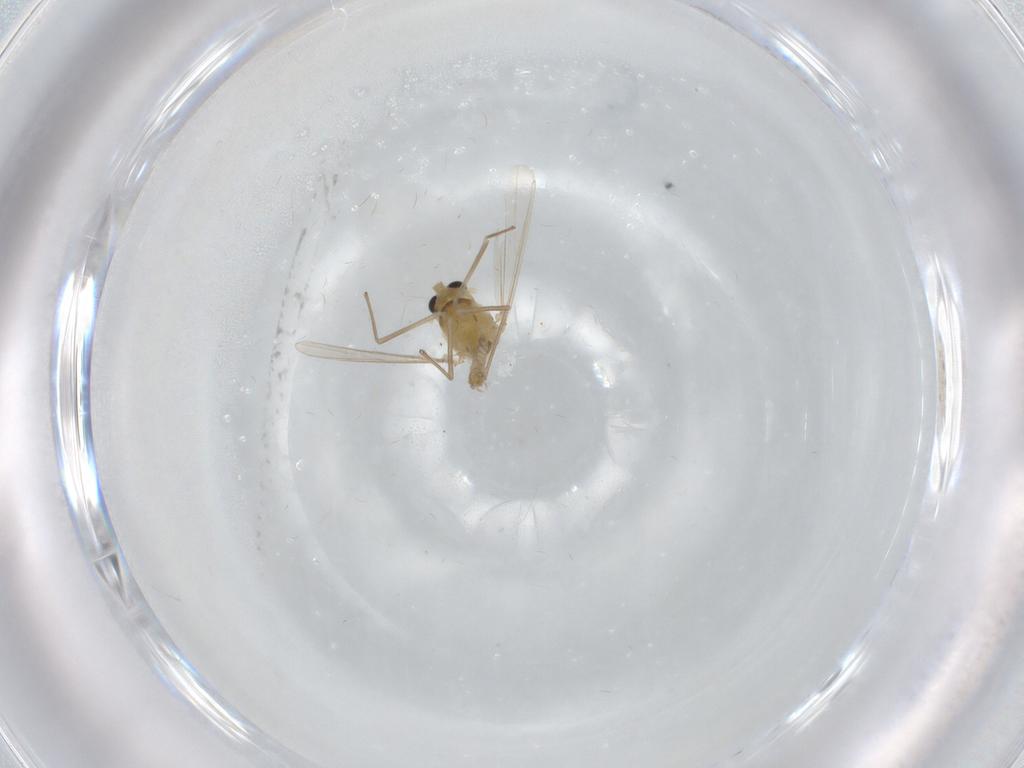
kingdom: Animalia
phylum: Arthropoda
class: Insecta
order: Diptera
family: Chironomidae
